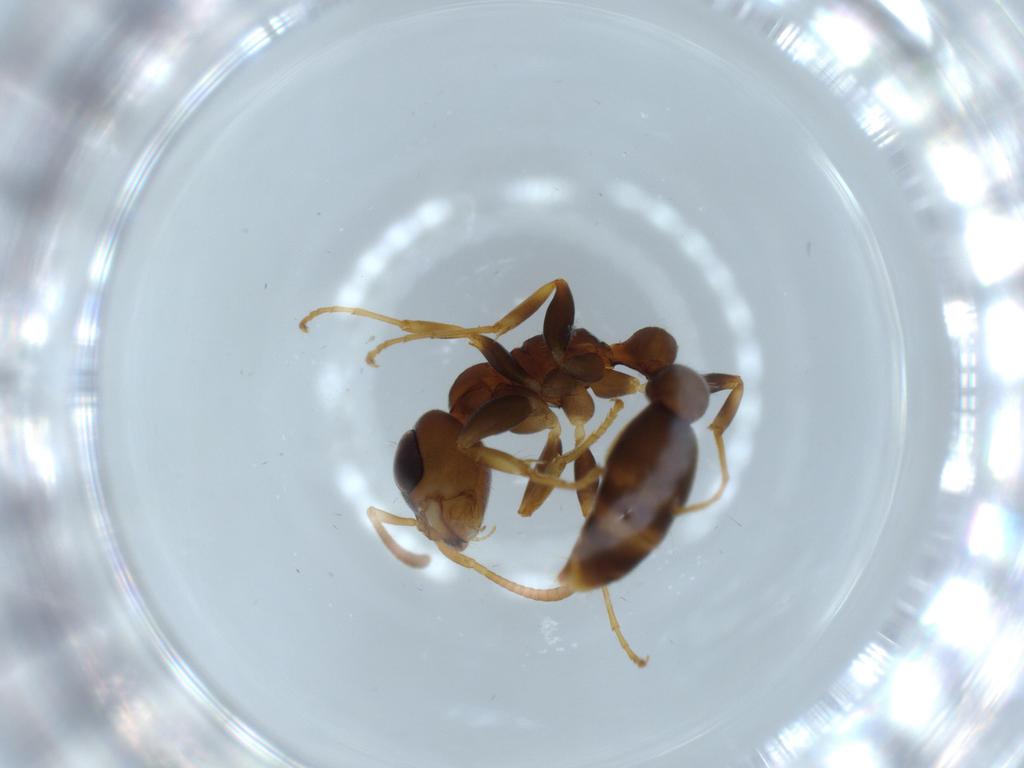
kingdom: Animalia
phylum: Arthropoda
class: Insecta
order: Hymenoptera
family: Formicidae
